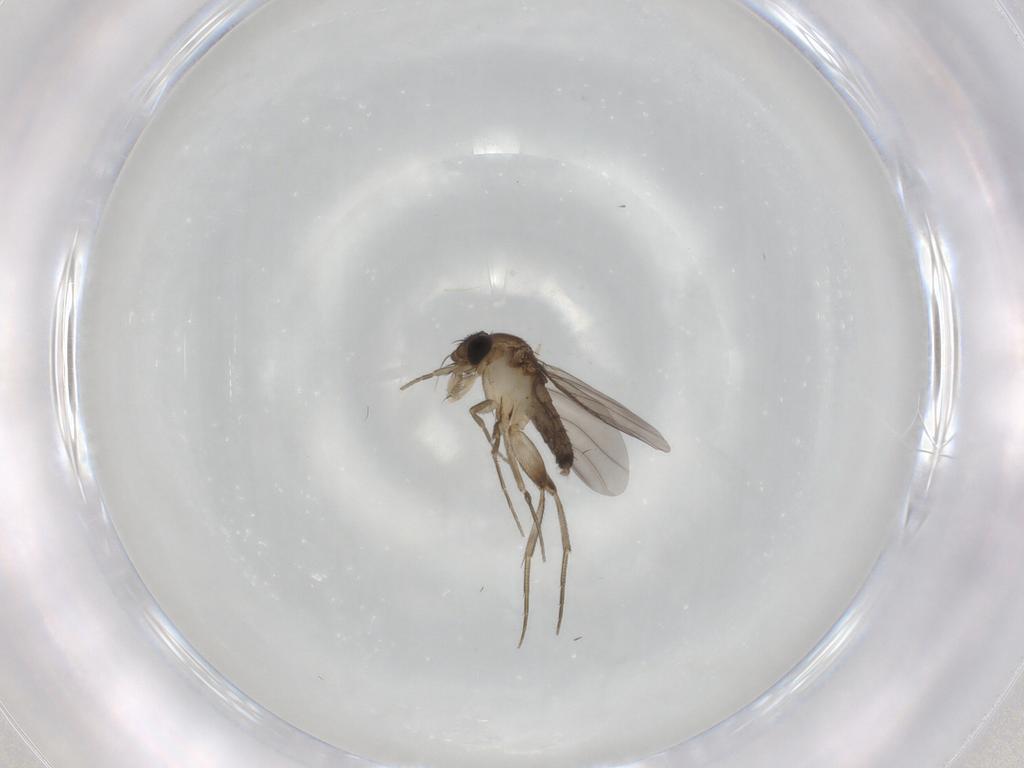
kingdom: Animalia
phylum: Arthropoda
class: Insecta
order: Diptera
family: Phoridae
